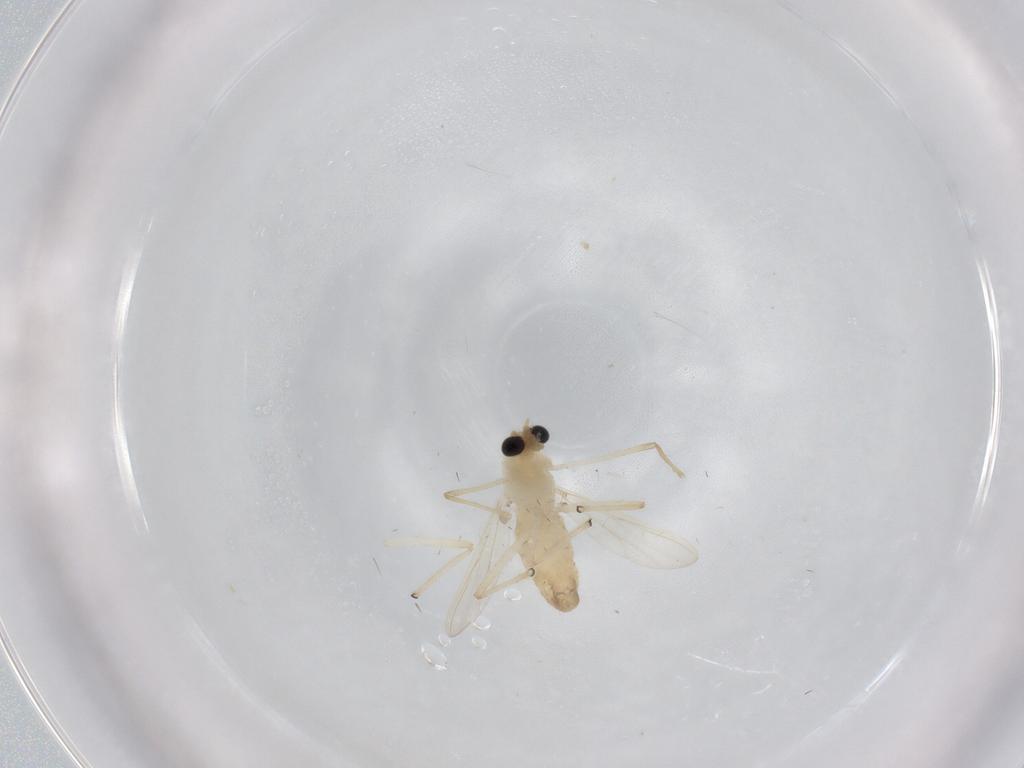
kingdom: Animalia
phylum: Arthropoda
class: Insecta
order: Diptera
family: Chironomidae
